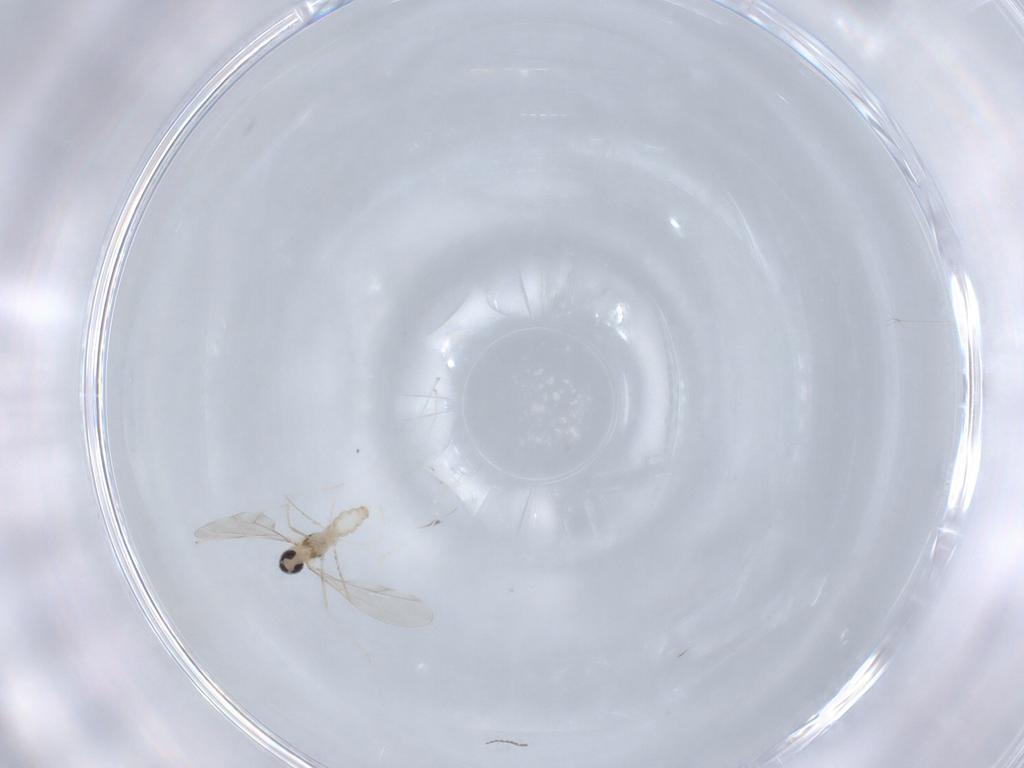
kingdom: Animalia
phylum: Arthropoda
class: Insecta
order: Diptera
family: Cecidomyiidae
